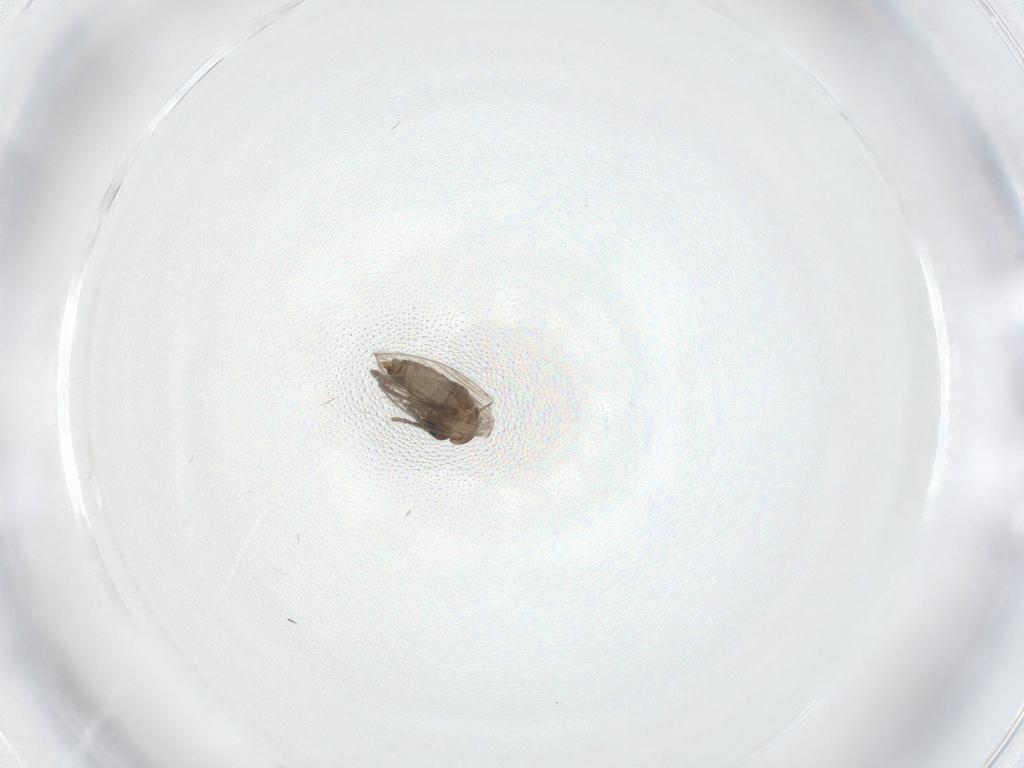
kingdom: Animalia
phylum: Arthropoda
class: Insecta
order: Diptera
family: Psychodidae
